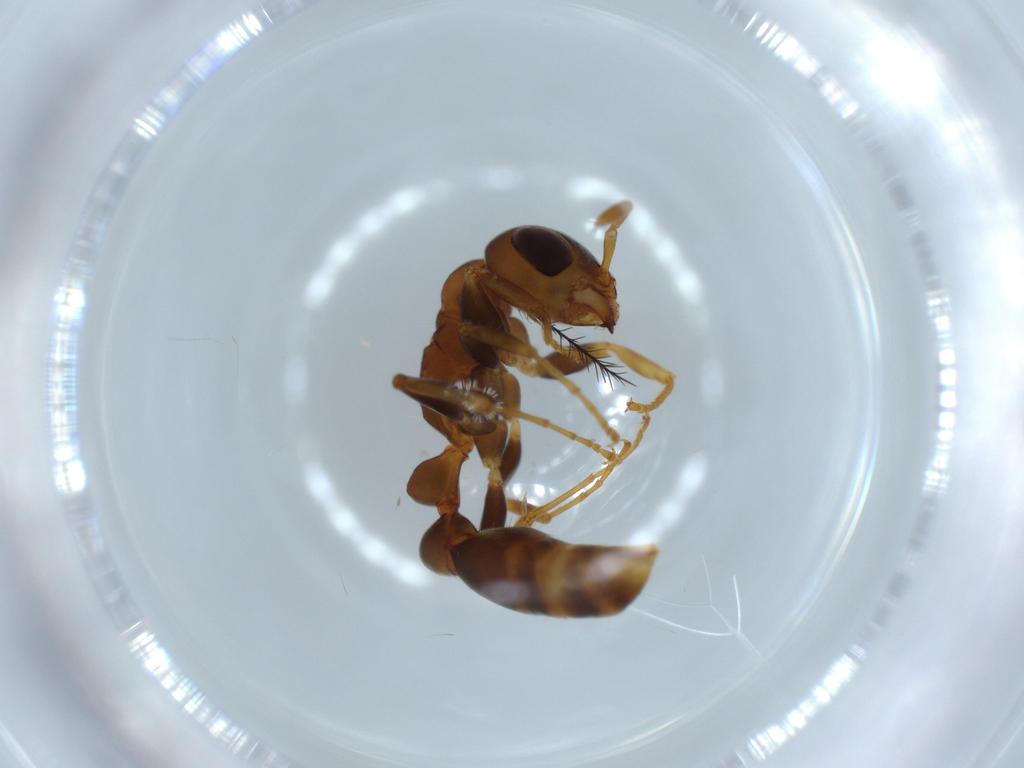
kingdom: Animalia
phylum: Arthropoda
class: Insecta
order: Hymenoptera
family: Formicidae
